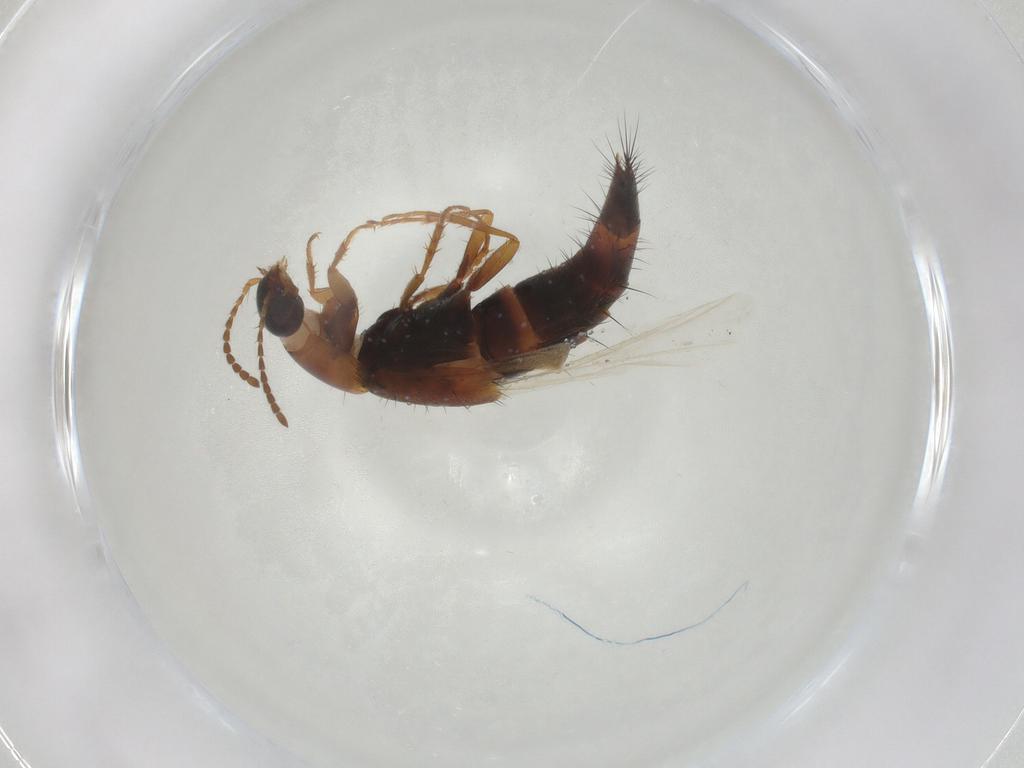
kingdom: Animalia
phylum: Arthropoda
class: Insecta
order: Coleoptera
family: Staphylinidae
